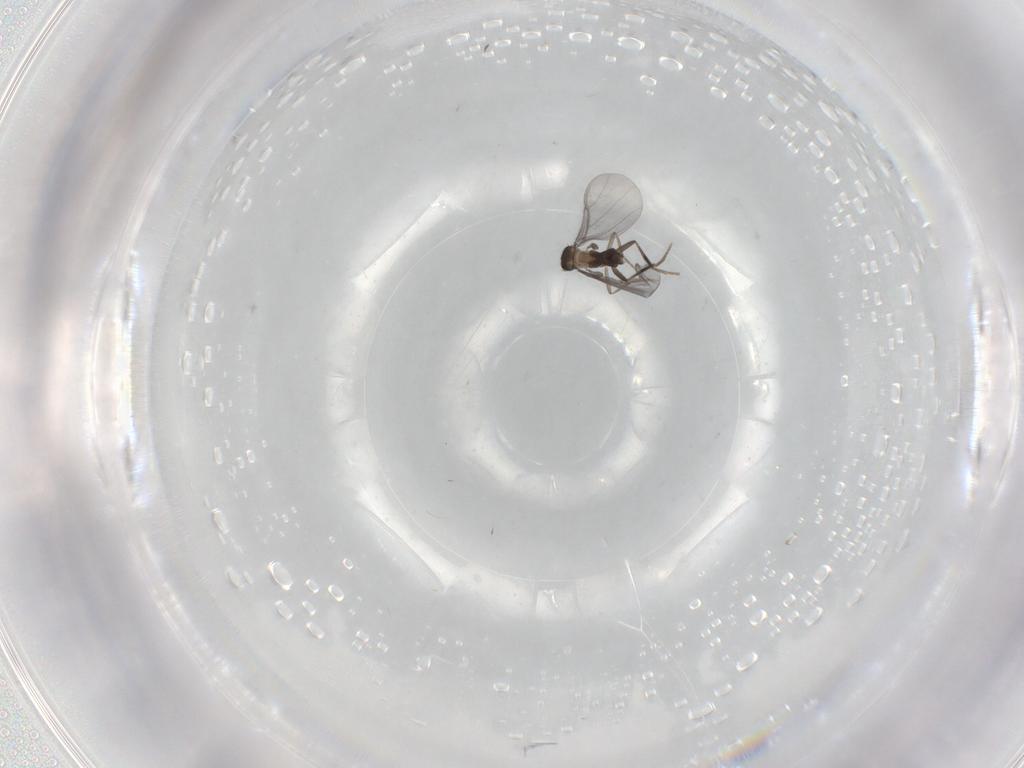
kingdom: Animalia
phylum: Arthropoda
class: Insecta
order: Diptera
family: Phoridae
